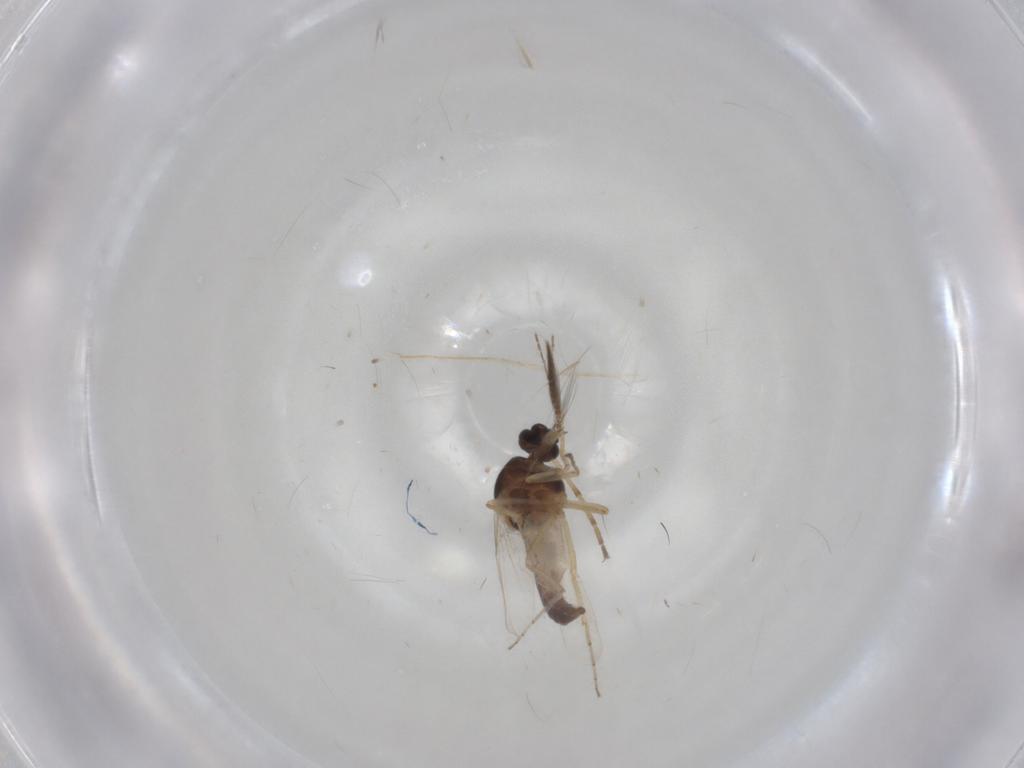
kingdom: Animalia
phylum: Arthropoda
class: Insecta
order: Diptera
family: Ceratopogonidae
